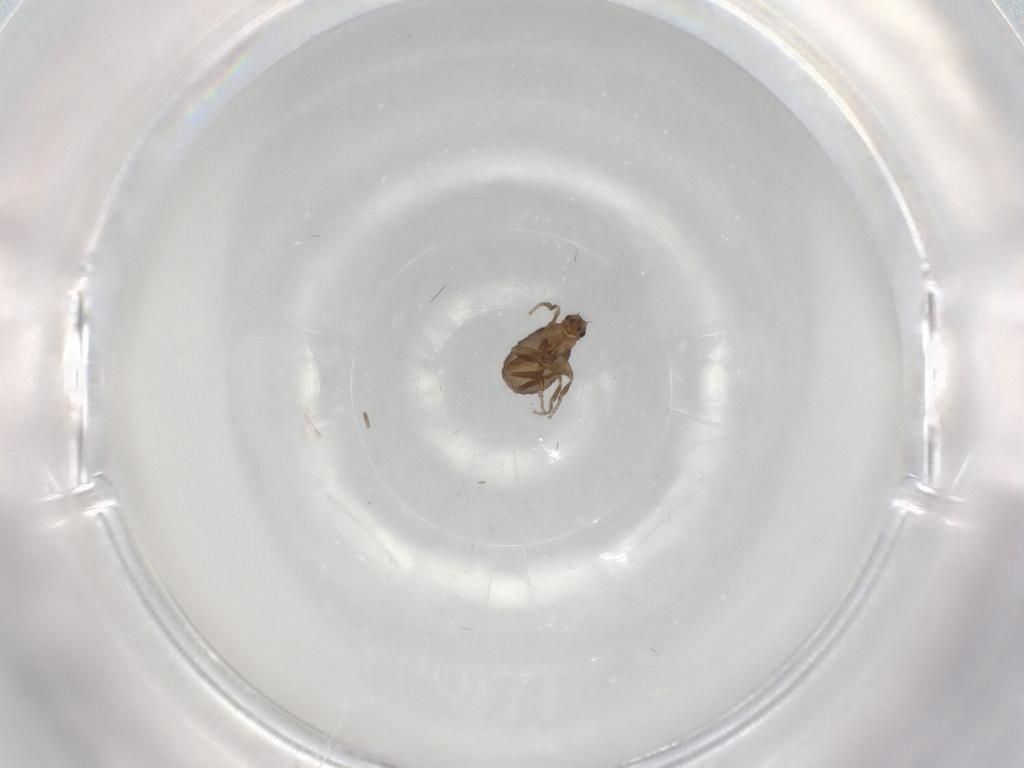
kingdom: Animalia
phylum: Arthropoda
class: Insecta
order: Diptera
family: Phoridae
